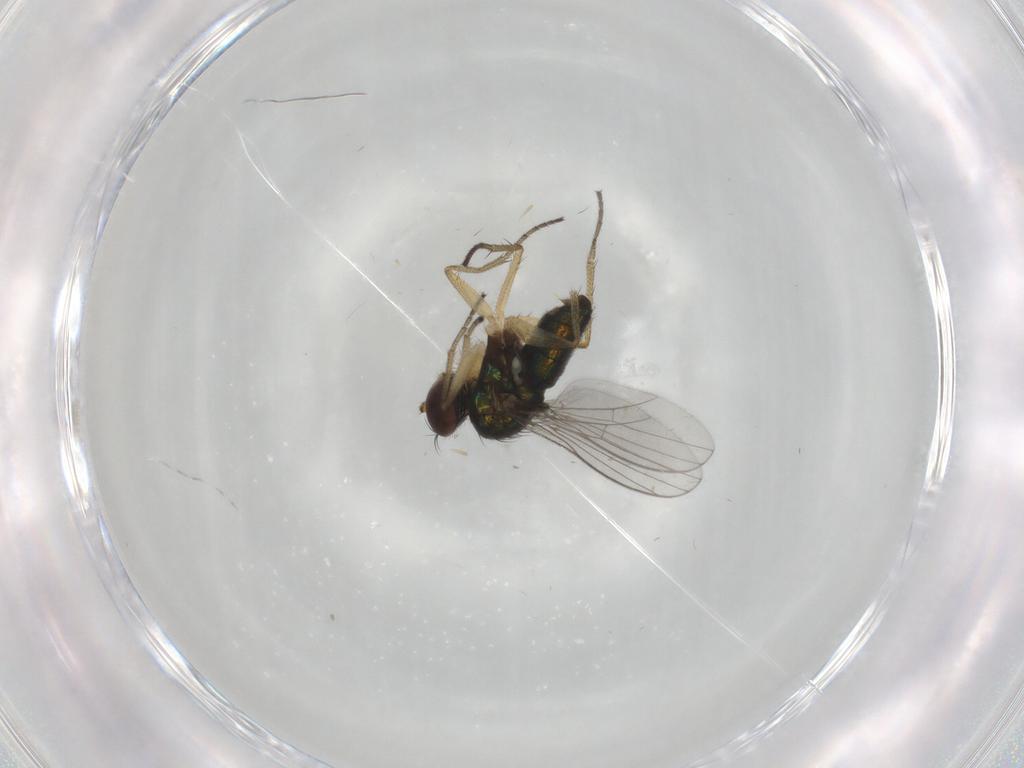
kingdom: Animalia
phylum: Arthropoda
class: Insecta
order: Diptera
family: Dolichopodidae
